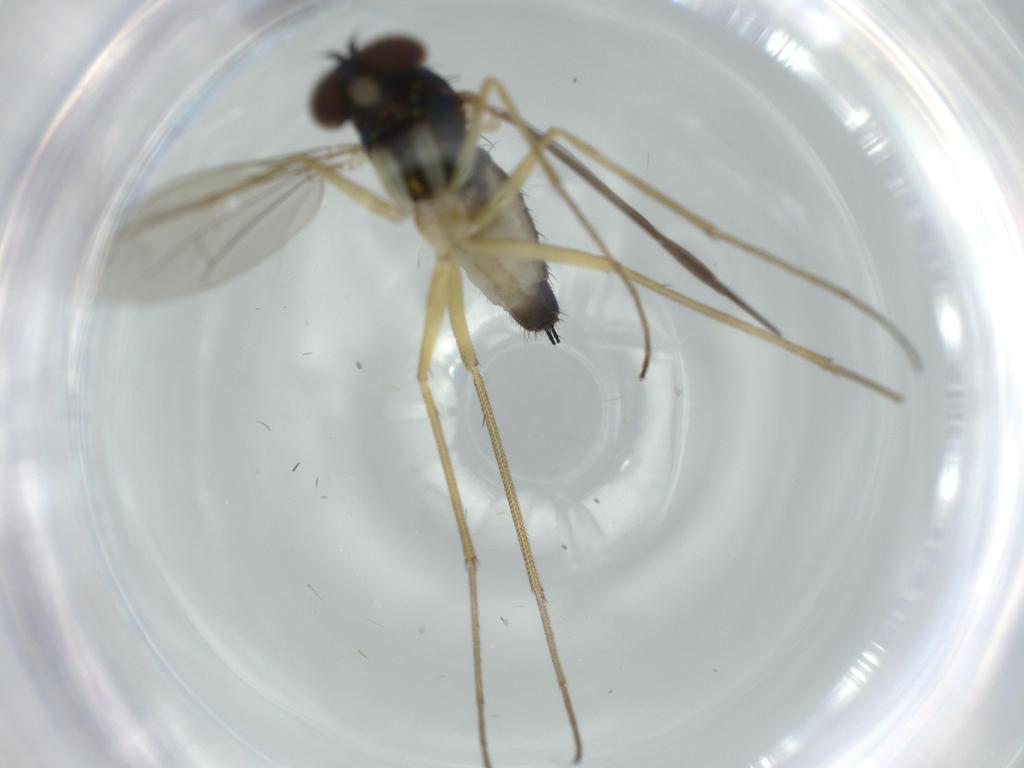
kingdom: Animalia
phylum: Arthropoda
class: Insecta
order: Diptera
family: Dolichopodidae
